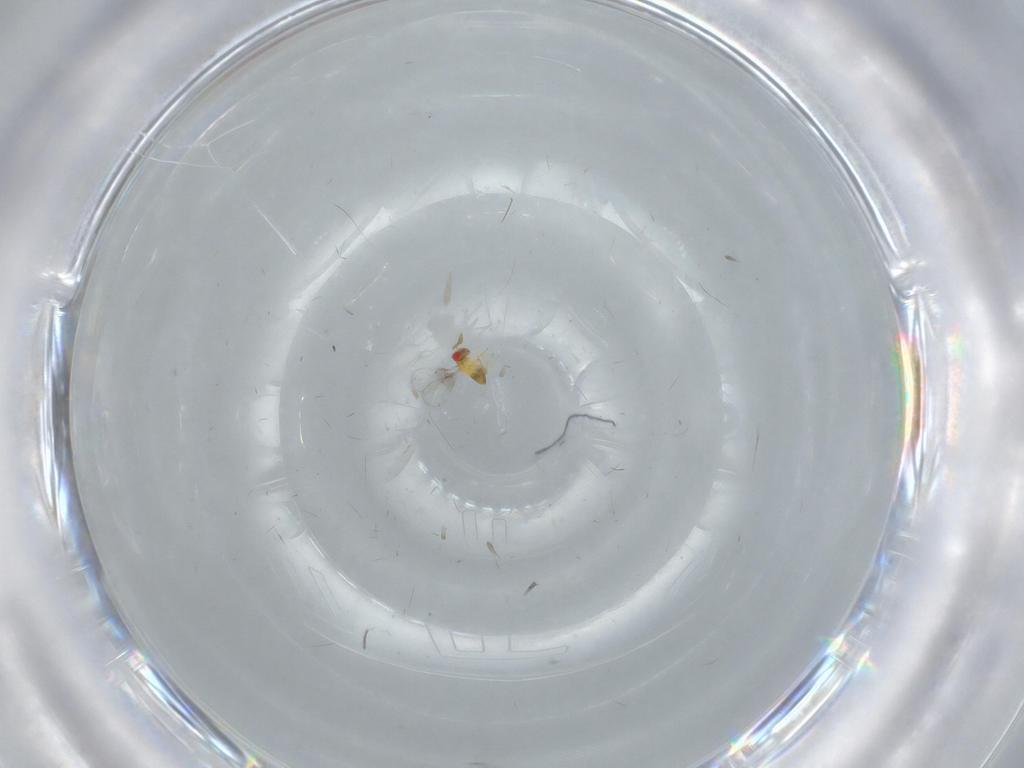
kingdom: Animalia
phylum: Arthropoda
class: Insecta
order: Hymenoptera
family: Trichogrammatidae
